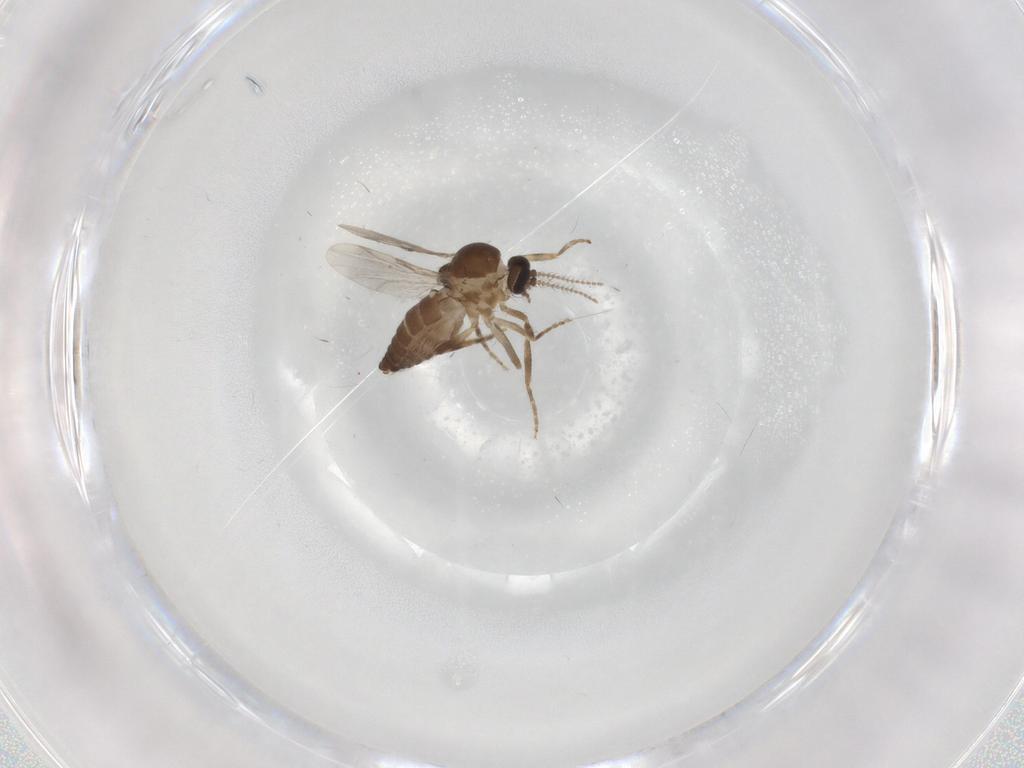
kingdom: Animalia
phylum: Arthropoda
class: Insecta
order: Diptera
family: Ceratopogonidae
